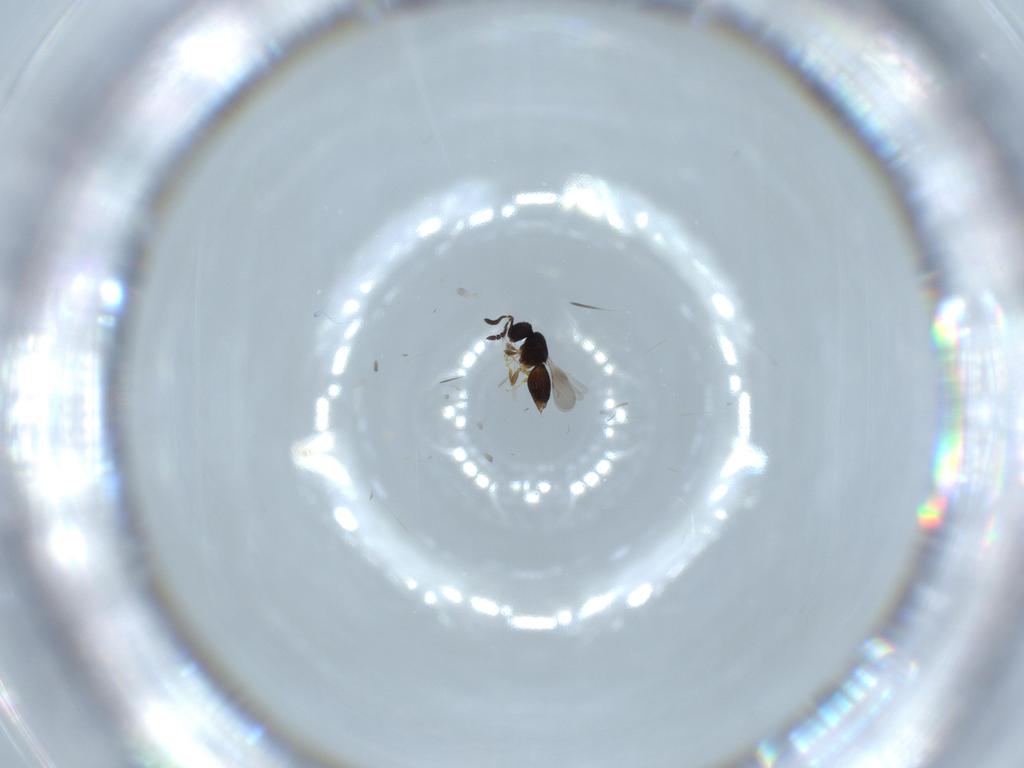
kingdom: Animalia
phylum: Arthropoda
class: Insecta
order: Hymenoptera
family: Ceraphronidae
